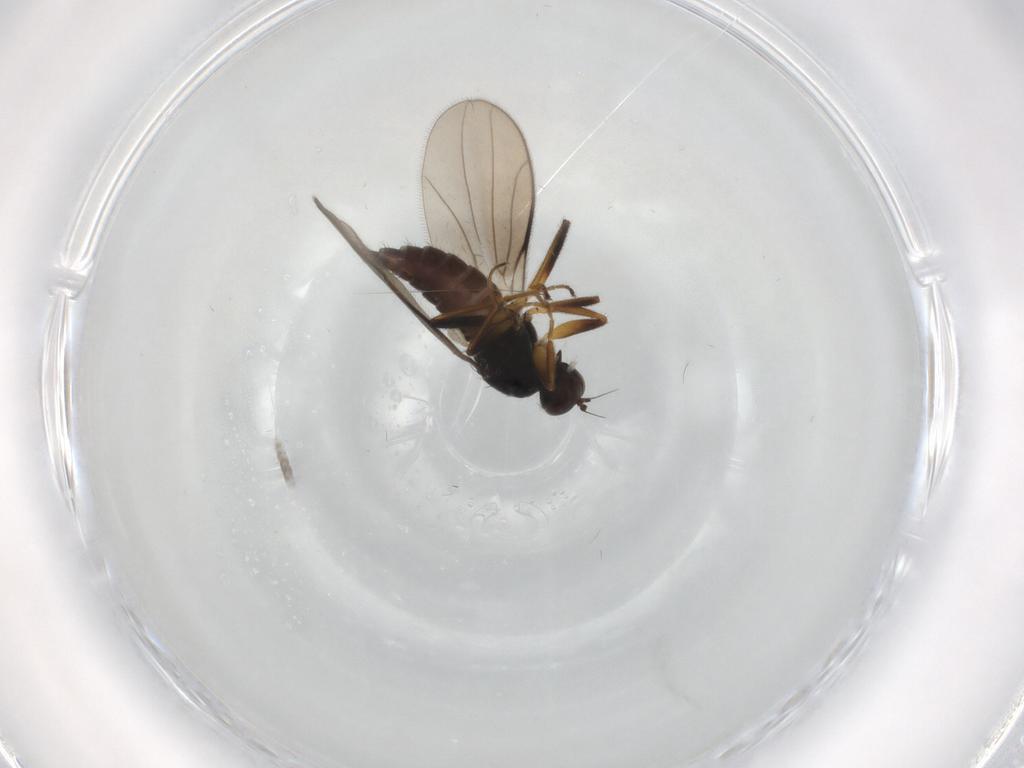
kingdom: Animalia
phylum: Arthropoda
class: Insecta
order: Diptera
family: Hybotidae
